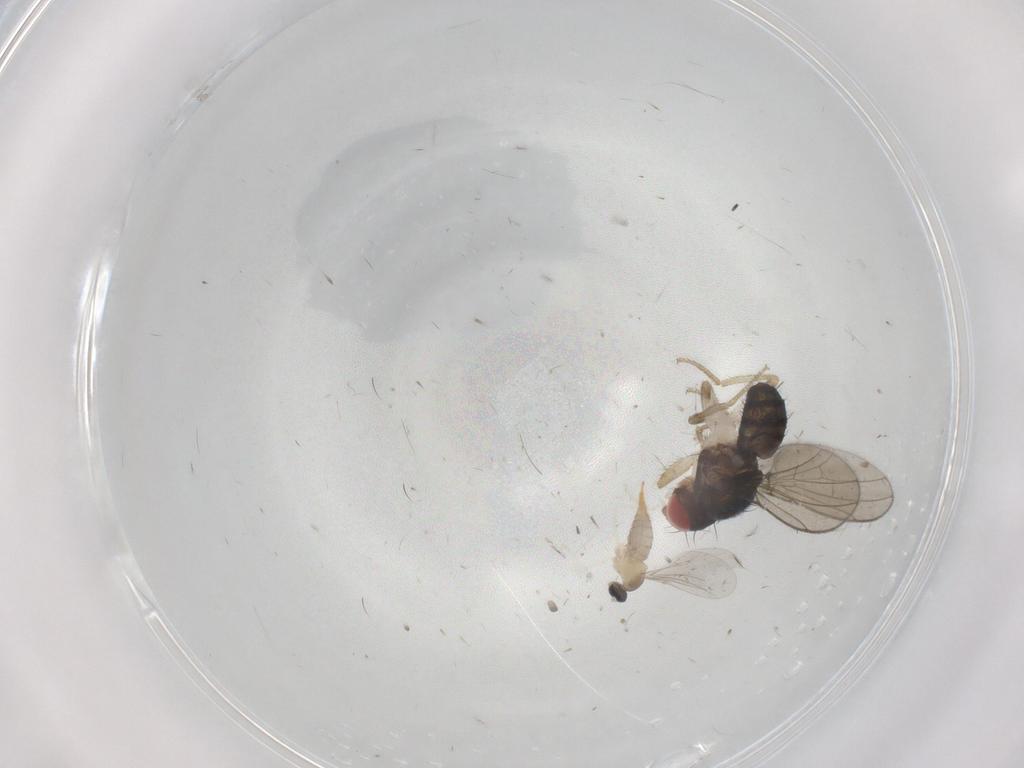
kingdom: Animalia
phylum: Arthropoda
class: Insecta
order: Diptera
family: Drosophilidae
